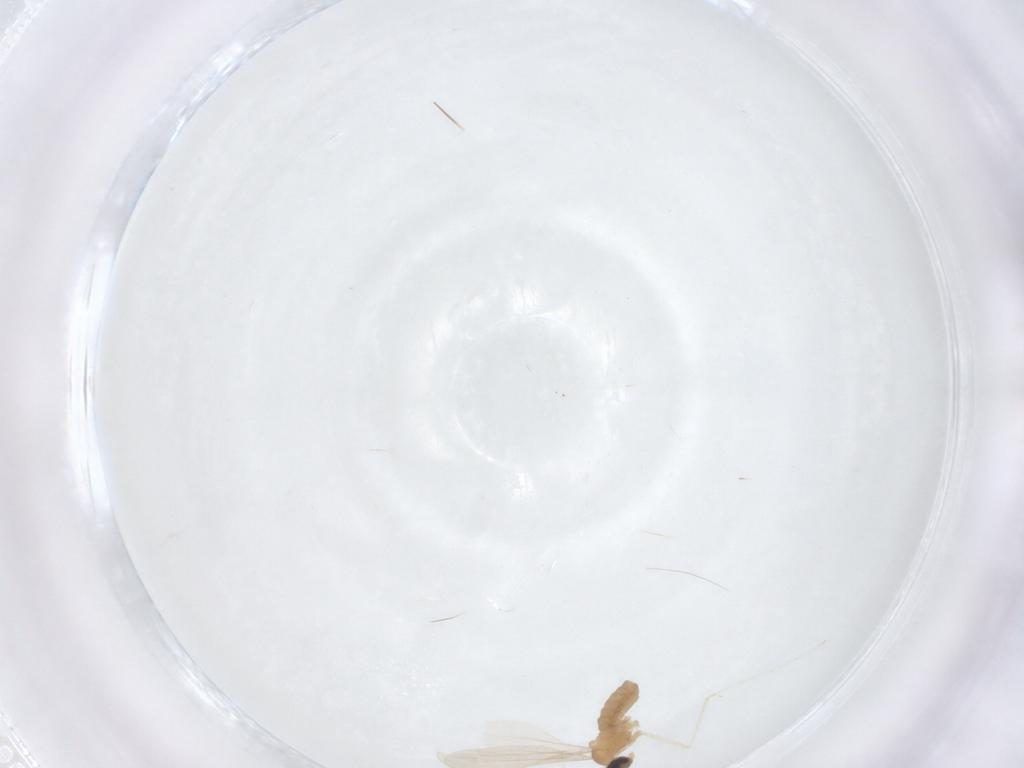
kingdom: Animalia
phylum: Arthropoda
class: Insecta
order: Diptera
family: Cecidomyiidae
